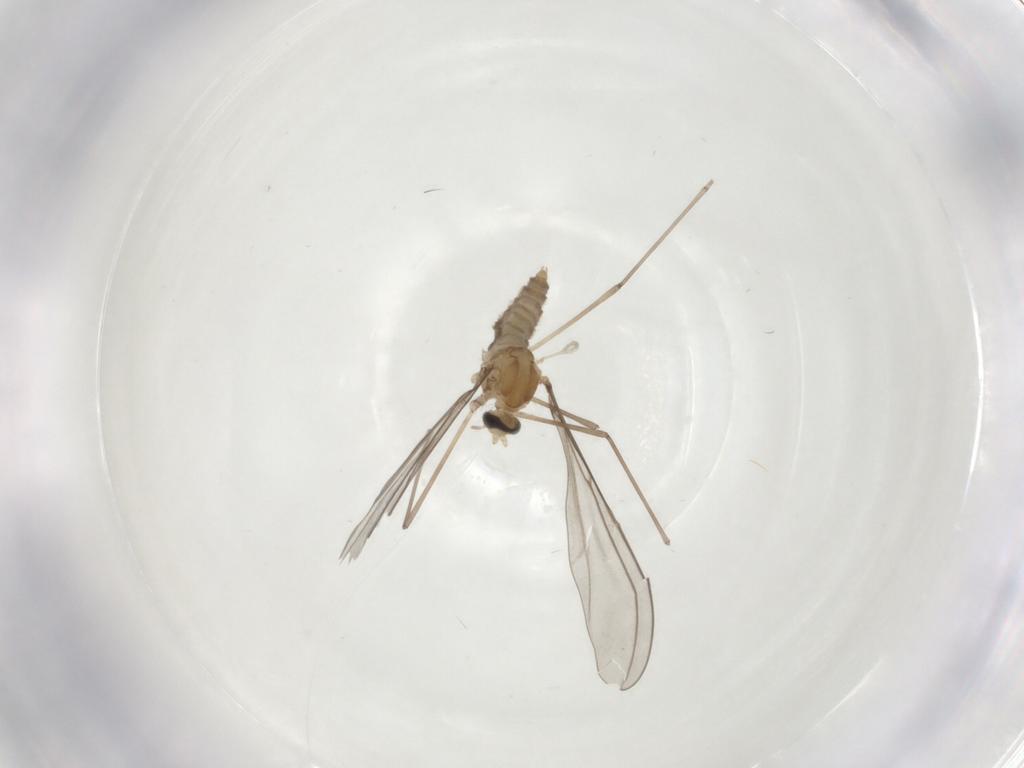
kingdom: Animalia
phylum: Arthropoda
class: Insecta
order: Diptera
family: Cecidomyiidae
